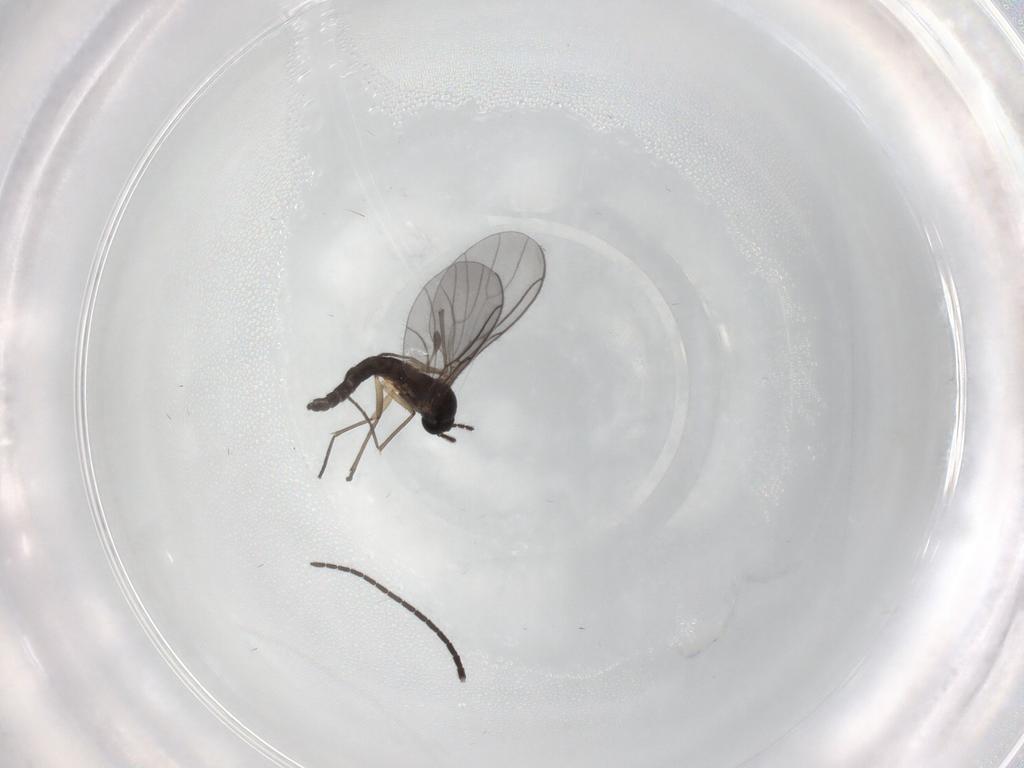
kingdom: Animalia
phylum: Arthropoda
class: Insecta
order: Diptera
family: Sciaridae
